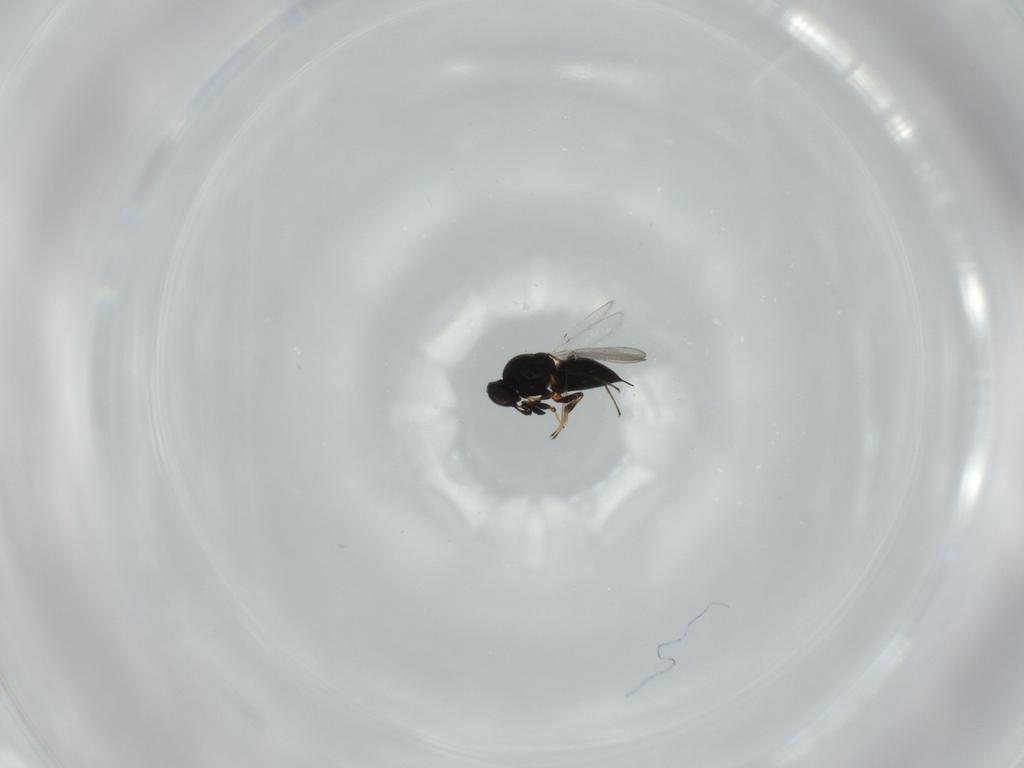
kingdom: Animalia
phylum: Arthropoda
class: Insecta
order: Hymenoptera
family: Platygastridae
